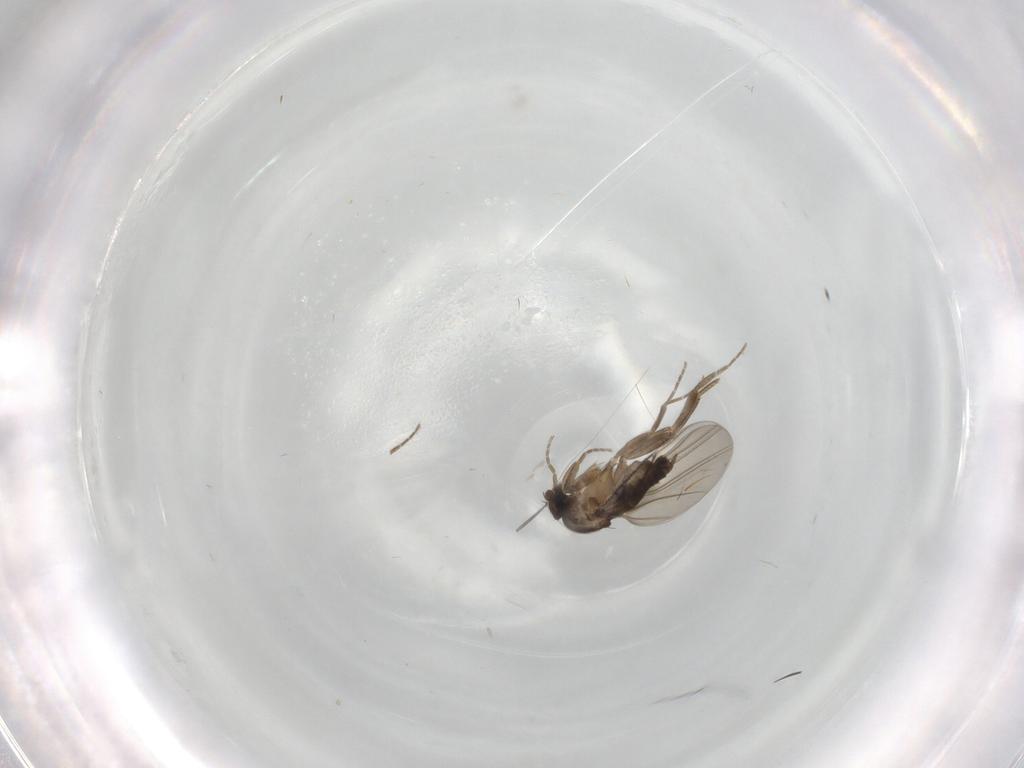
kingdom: Animalia
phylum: Arthropoda
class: Insecta
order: Diptera
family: Phoridae
